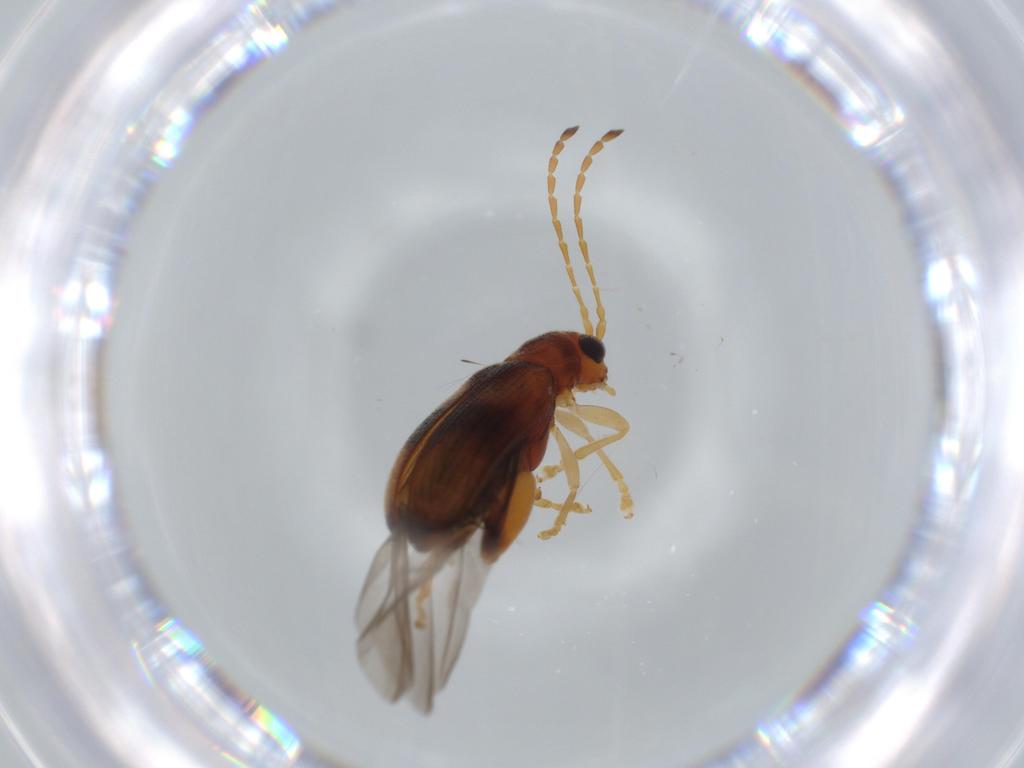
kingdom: Animalia
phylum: Arthropoda
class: Insecta
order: Coleoptera
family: Chrysomelidae
